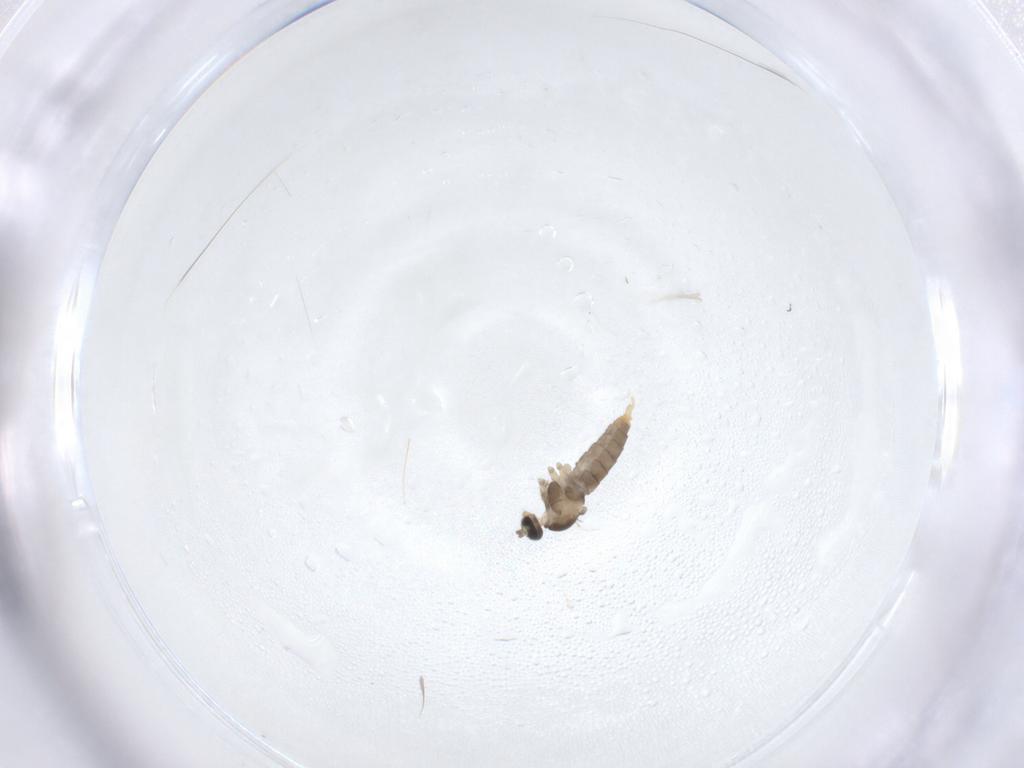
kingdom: Animalia
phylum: Arthropoda
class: Insecta
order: Diptera
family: Cecidomyiidae
